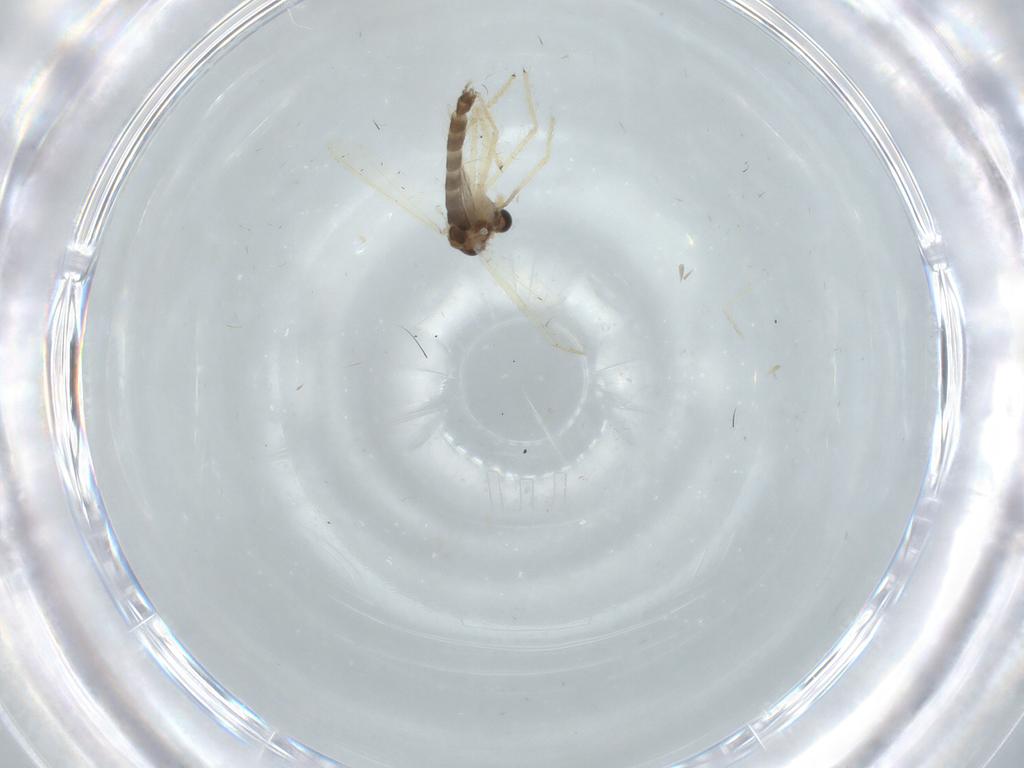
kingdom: Animalia
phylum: Arthropoda
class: Insecta
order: Diptera
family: Chironomidae
